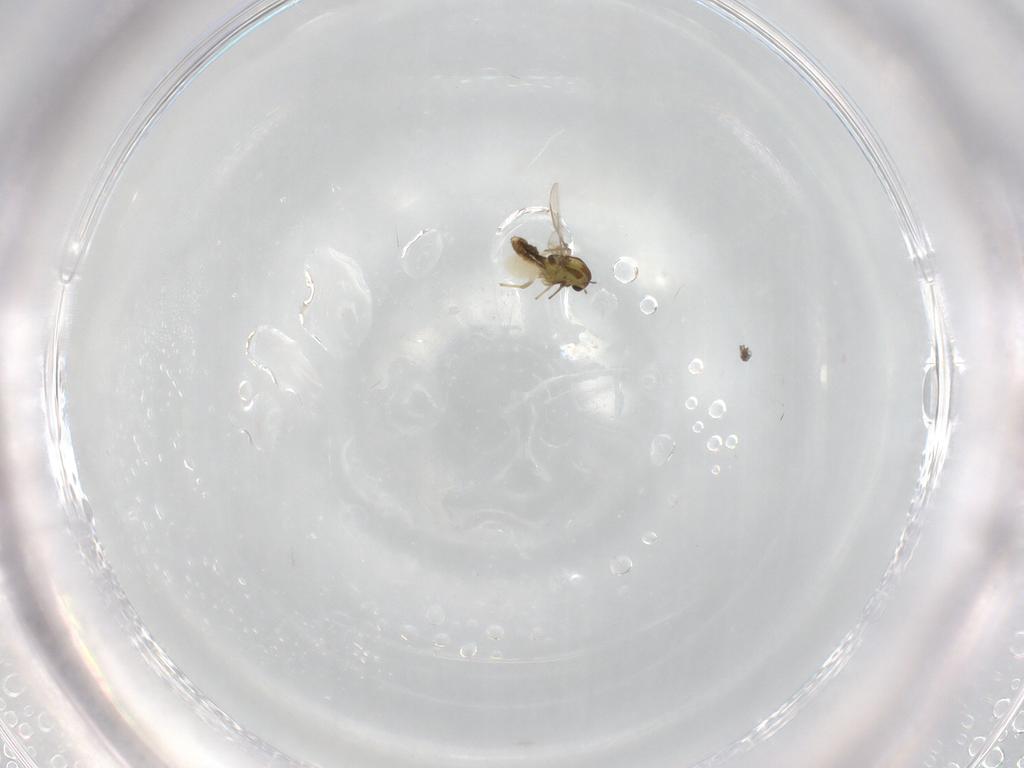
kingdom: Animalia
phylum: Arthropoda
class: Insecta
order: Diptera
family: Chironomidae
